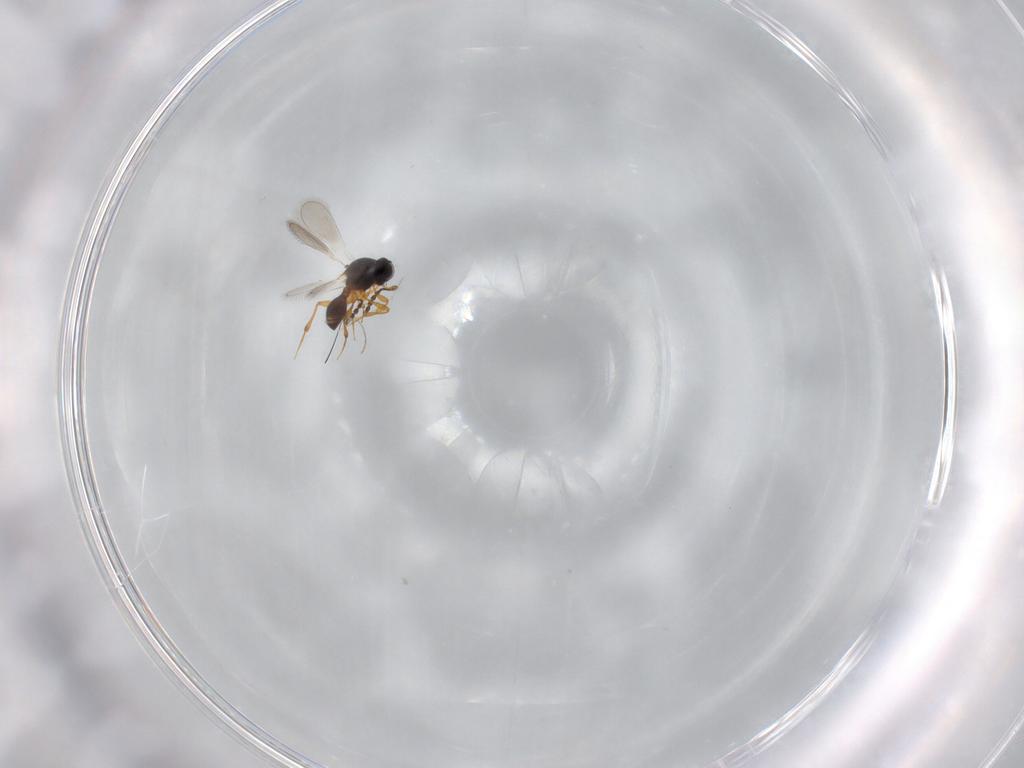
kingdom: Animalia
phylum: Arthropoda
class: Insecta
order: Hymenoptera
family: Platygastridae
